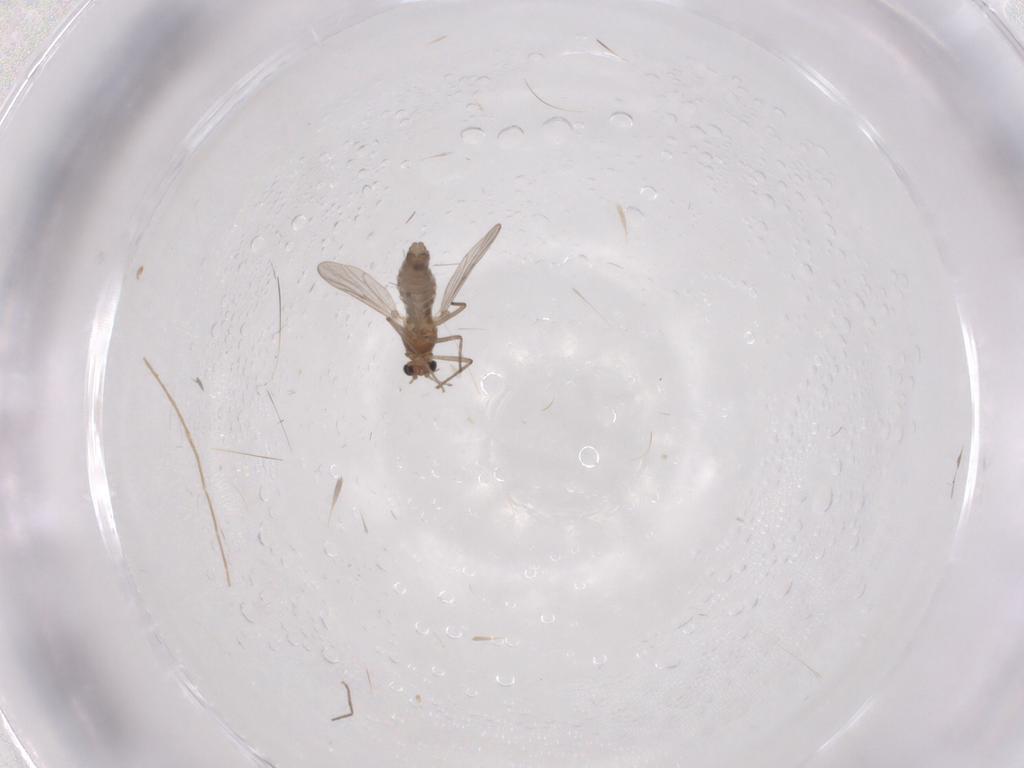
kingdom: Animalia
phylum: Arthropoda
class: Insecta
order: Diptera
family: Chironomidae
